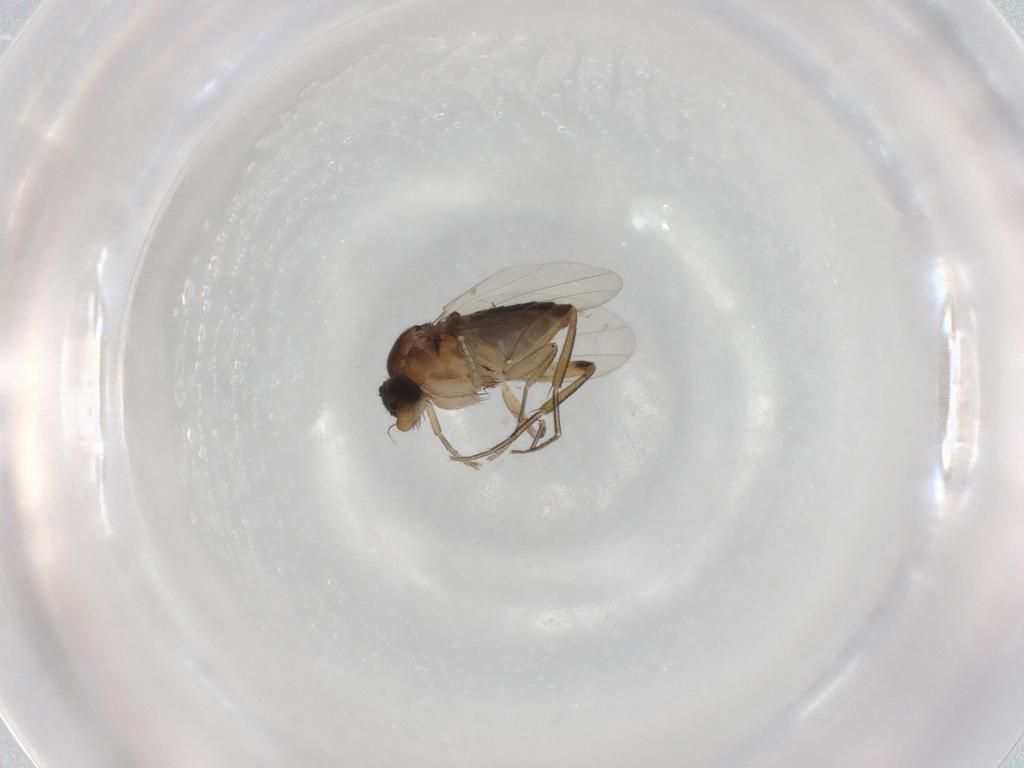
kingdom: Animalia
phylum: Arthropoda
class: Insecta
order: Diptera
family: Phoridae
